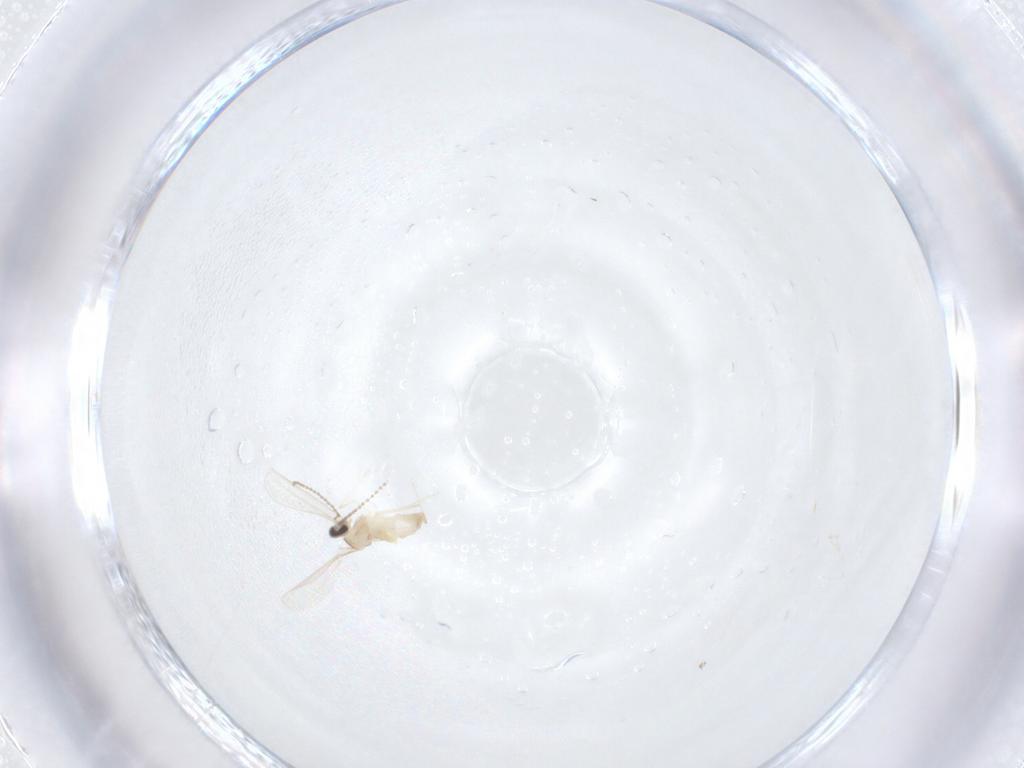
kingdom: Animalia
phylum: Arthropoda
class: Insecta
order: Diptera
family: Cecidomyiidae
